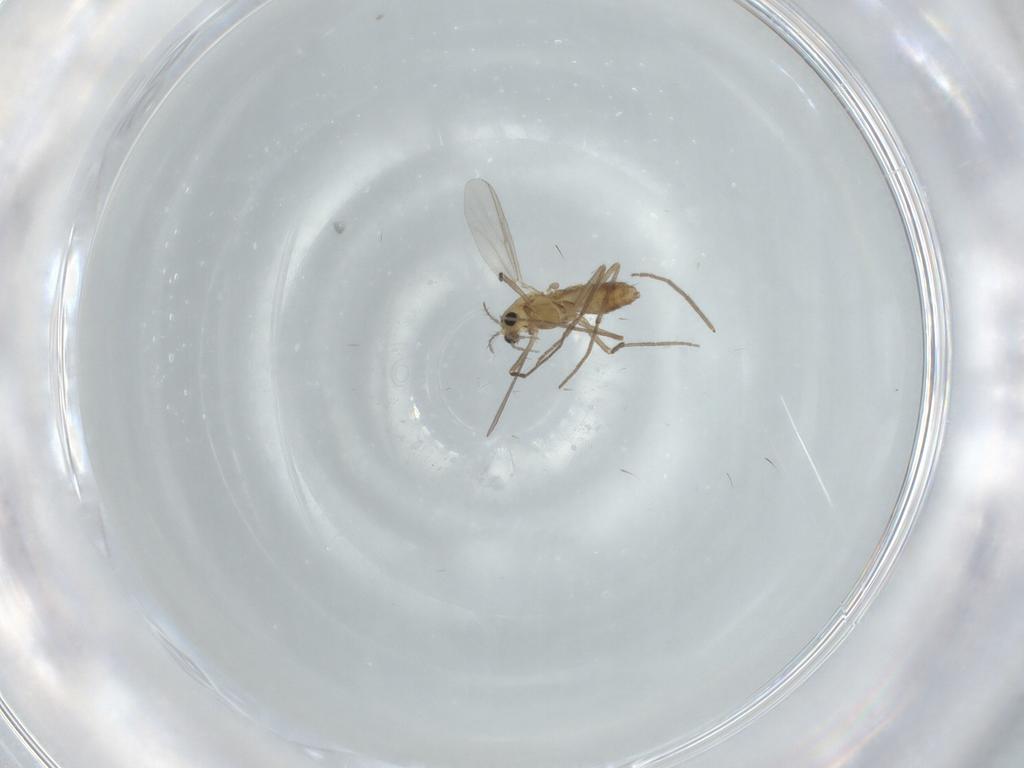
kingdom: Animalia
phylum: Arthropoda
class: Insecta
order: Diptera
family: Chironomidae
